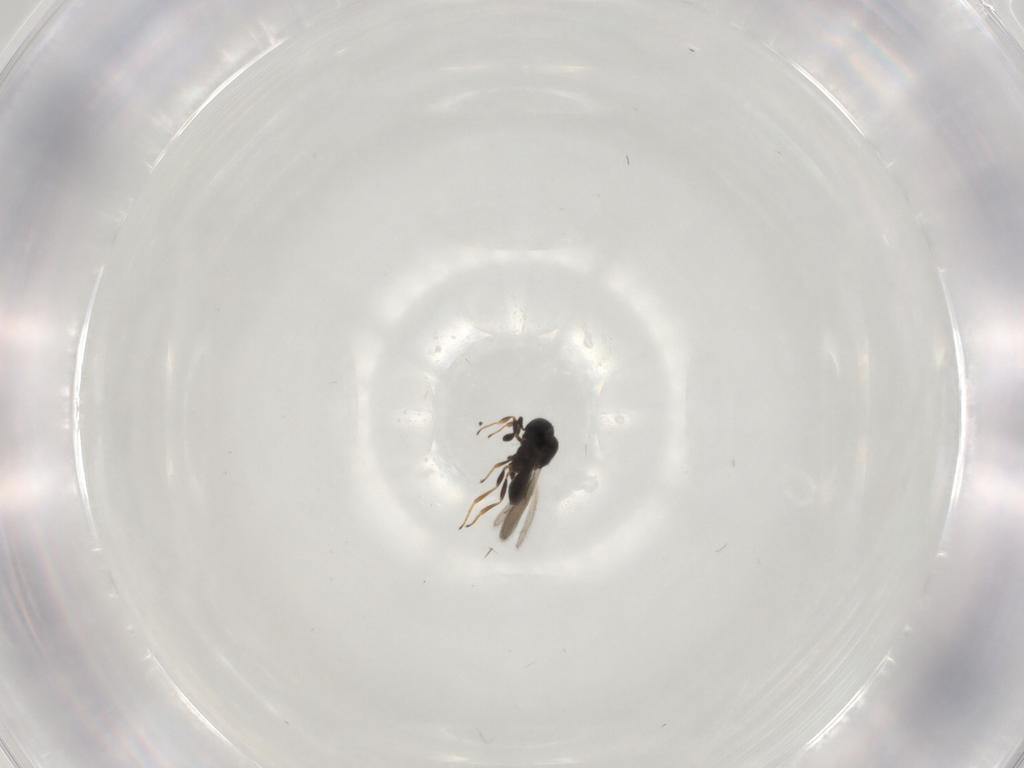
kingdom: Animalia
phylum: Arthropoda
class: Insecta
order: Hymenoptera
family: Scelionidae
